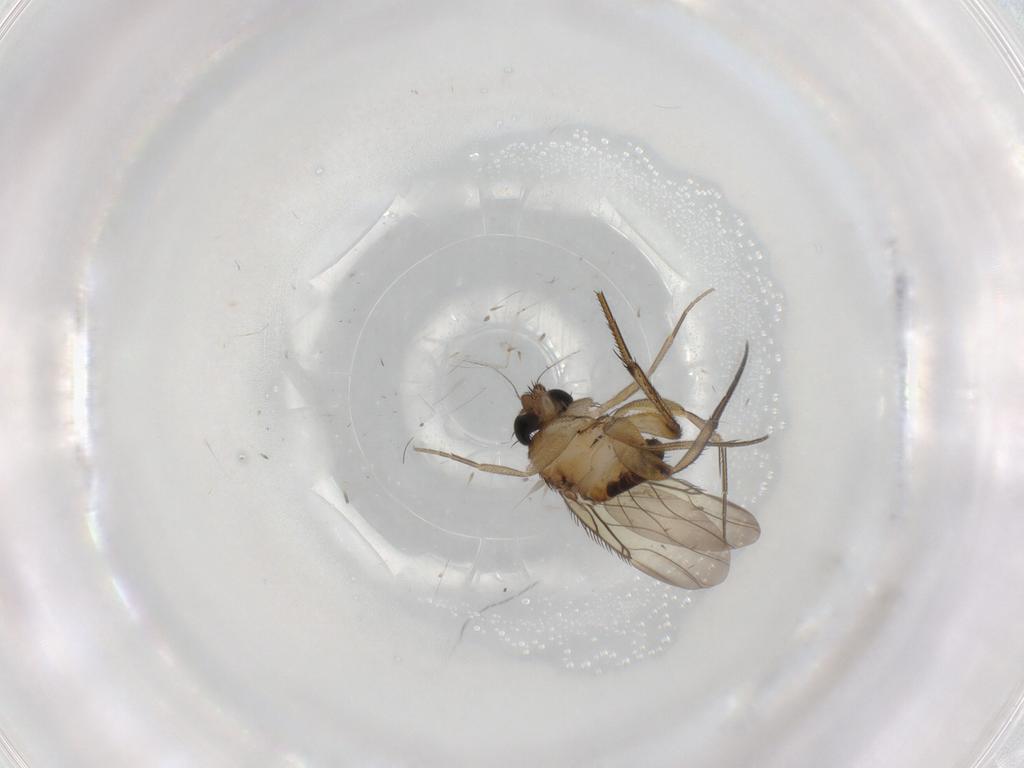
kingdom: Animalia
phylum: Arthropoda
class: Insecta
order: Diptera
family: Phoridae
